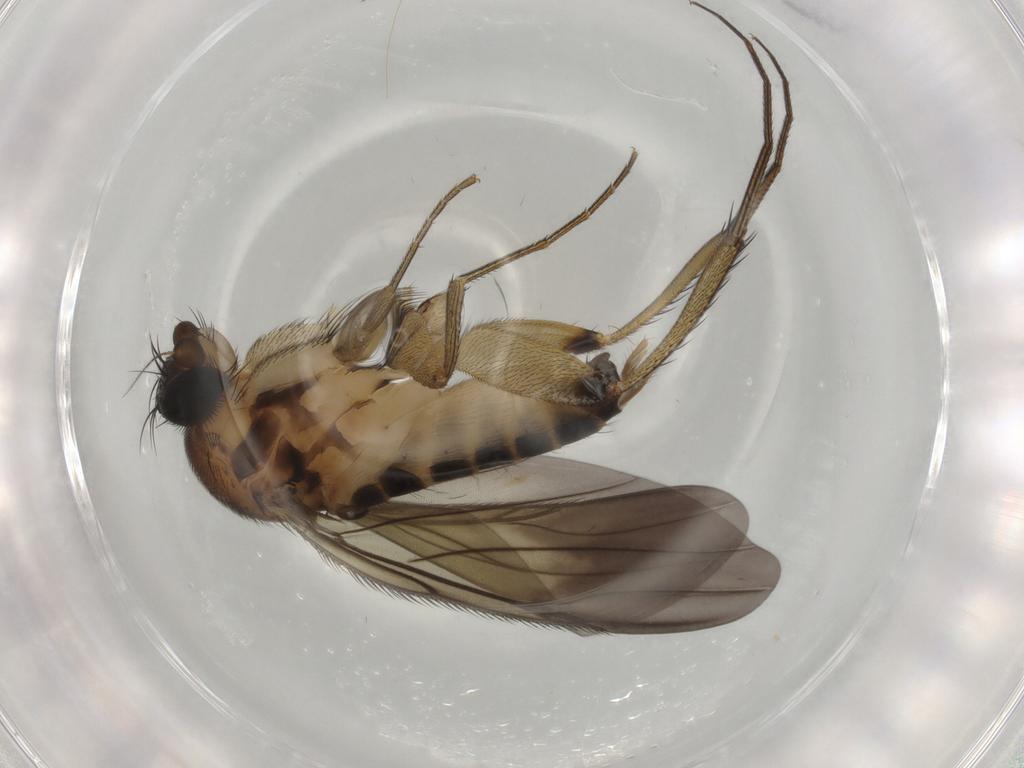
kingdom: Animalia
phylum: Arthropoda
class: Insecta
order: Diptera
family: Phoridae
